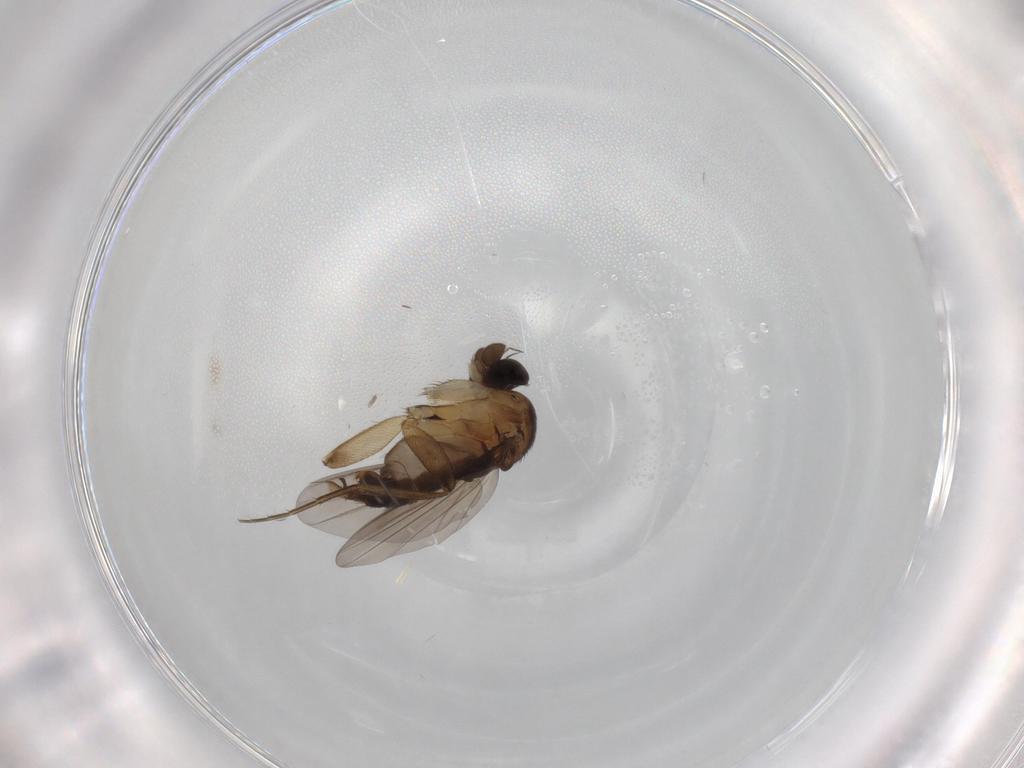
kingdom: Animalia
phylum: Arthropoda
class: Insecta
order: Diptera
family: Phoridae
